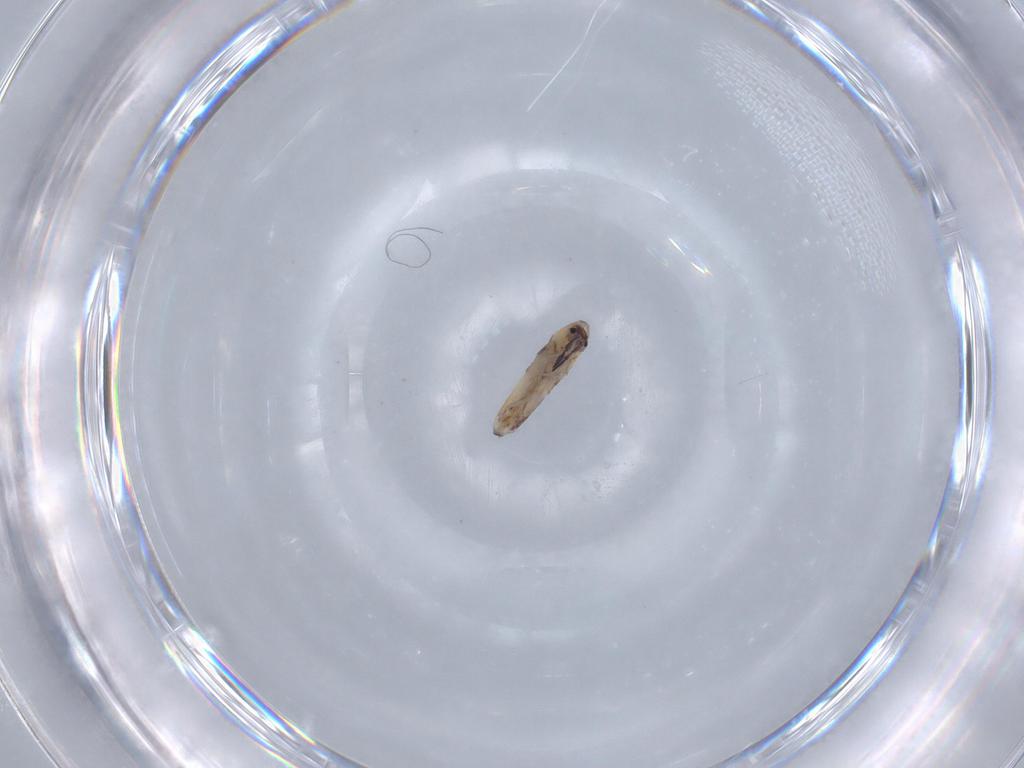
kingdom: Animalia
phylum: Arthropoda
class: Collembola
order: Entomobryomorpha
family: Entomobryidae
